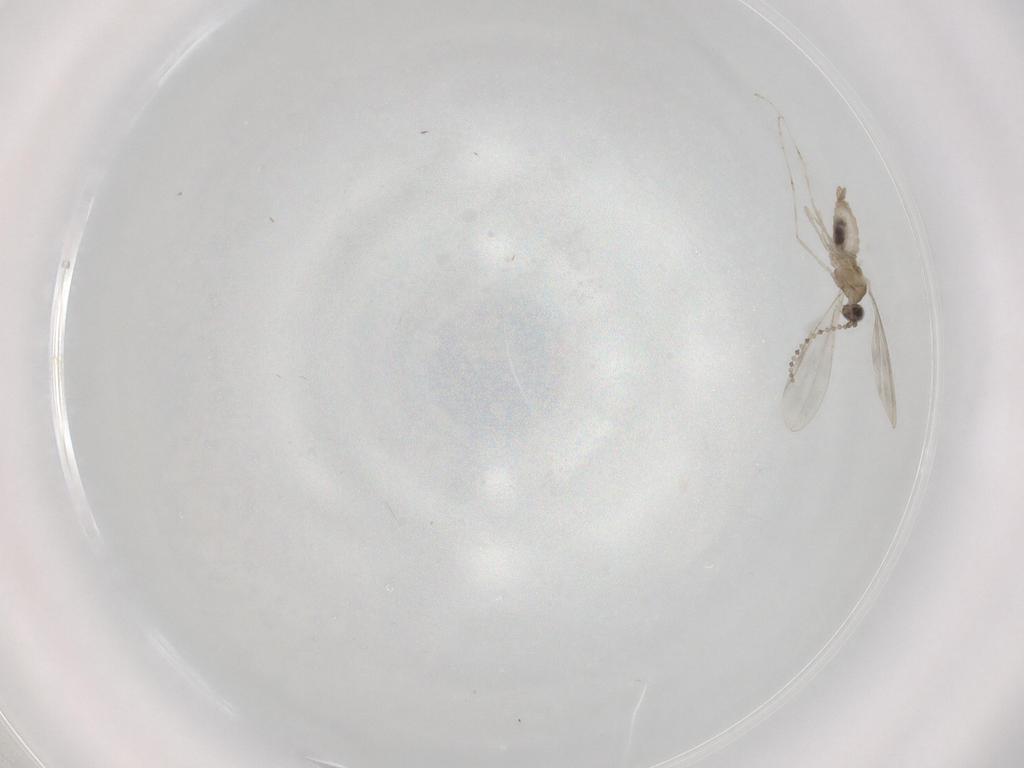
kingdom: Animalia
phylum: Arthropoda
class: Insecta
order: Diptera
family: Cecidomyiidae
